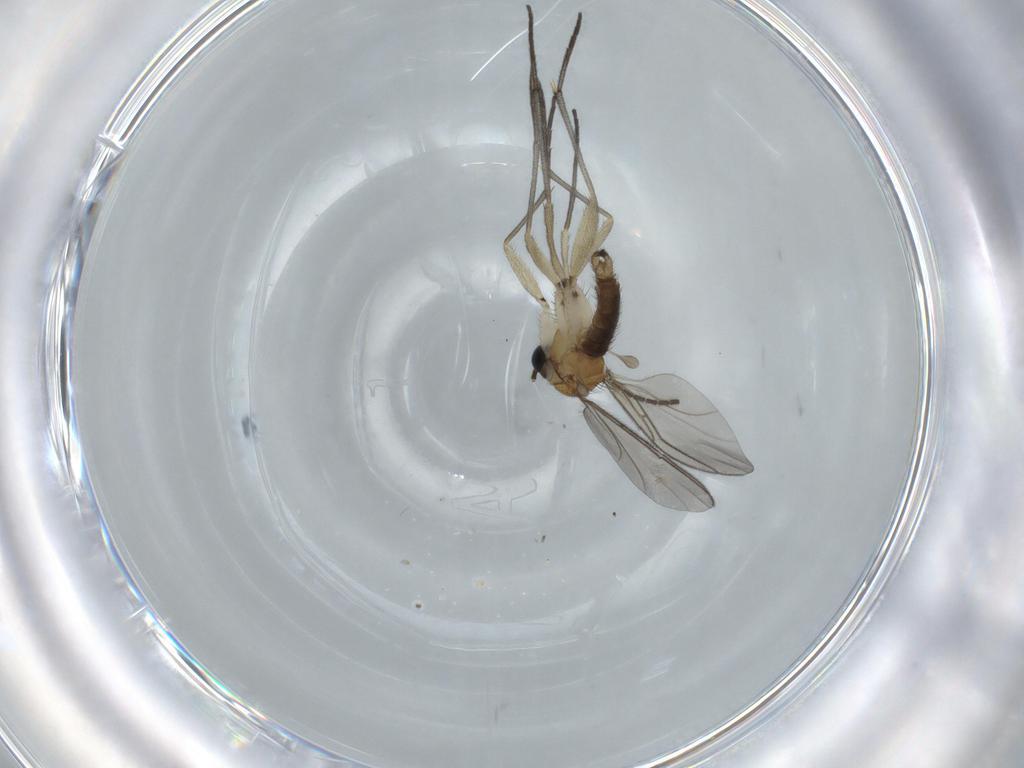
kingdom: Animalia
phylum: Arthropoda
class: Insecta
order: Diptera
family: Sciaridae
